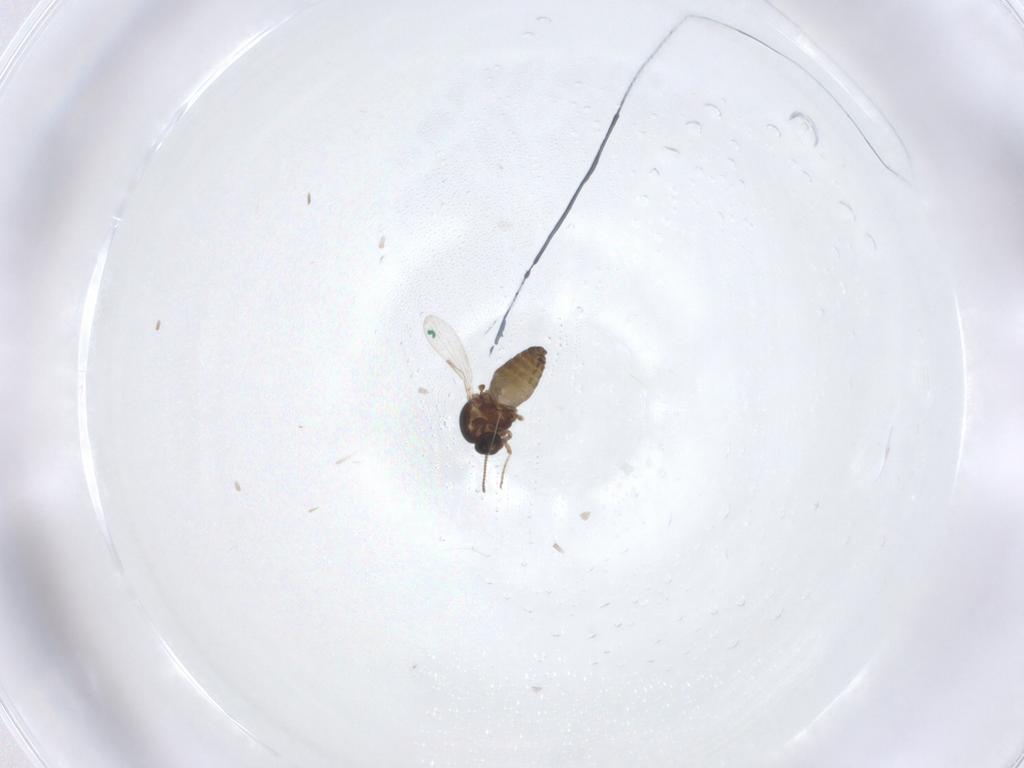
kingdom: Animalia
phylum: Arthropoda
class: Insecta
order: Diptera
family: Ceratopogonidae
